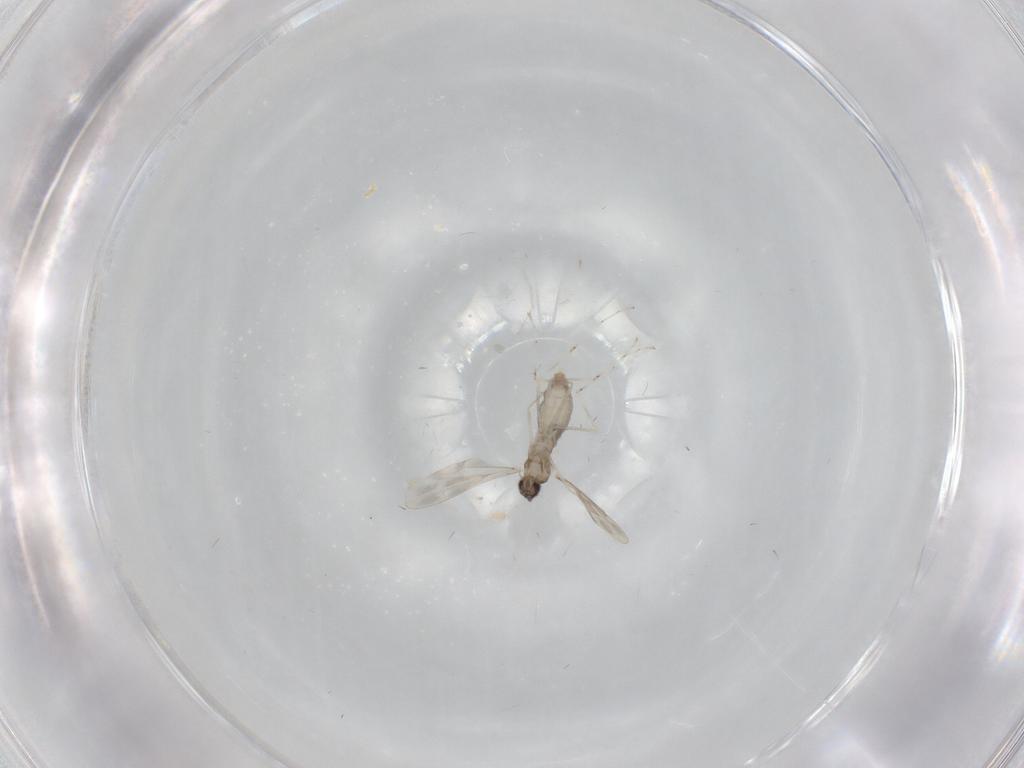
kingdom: Animalia
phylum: Arthropoda
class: Insecta
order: Diptera
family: Cecidomyiidae
